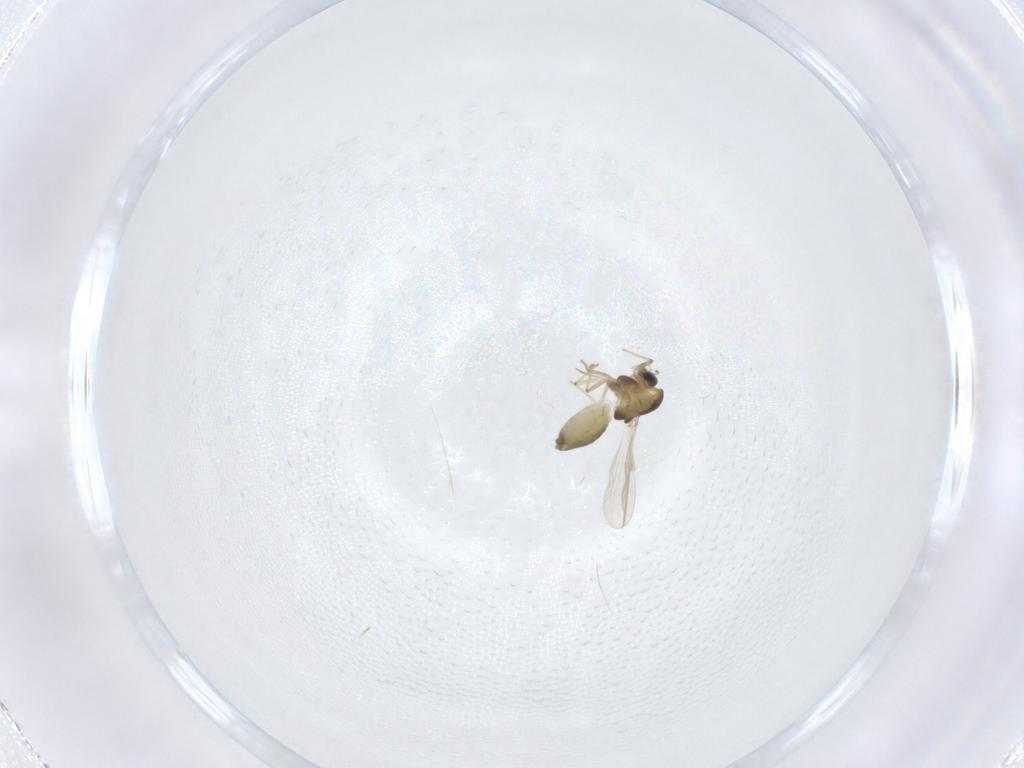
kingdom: Animalia
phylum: Arthropoda
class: Insecta
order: Diptera
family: Chironomidae
